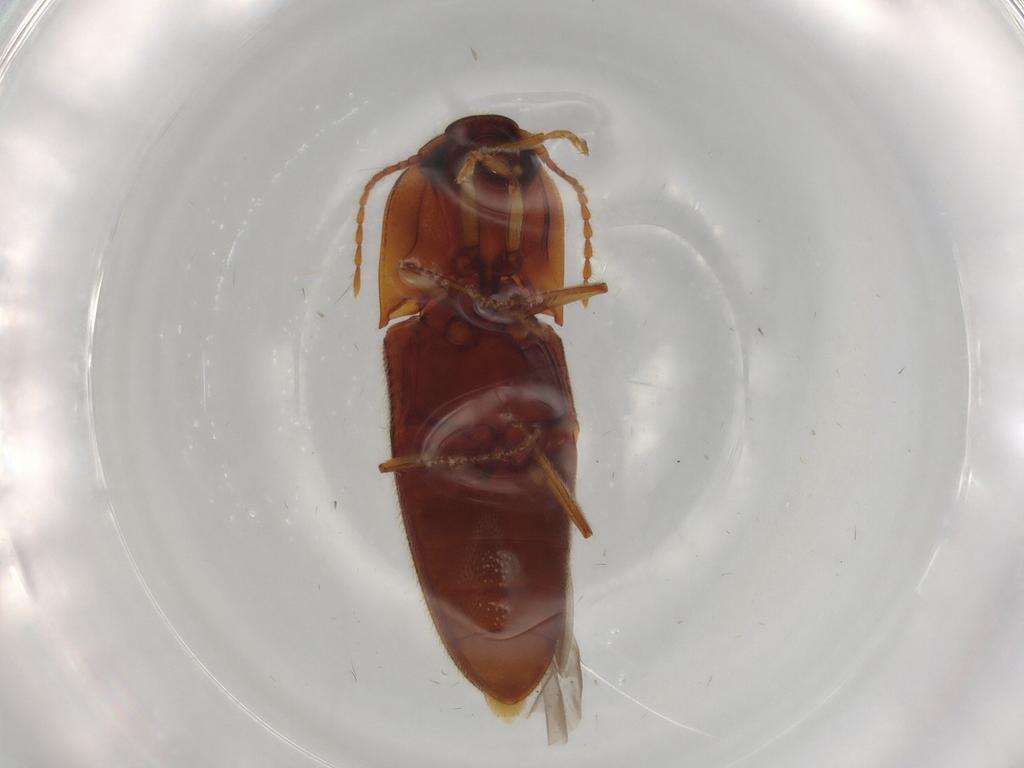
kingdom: Animalia
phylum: Arthropoda
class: Insecta
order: Coleoptera
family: Elateridae
